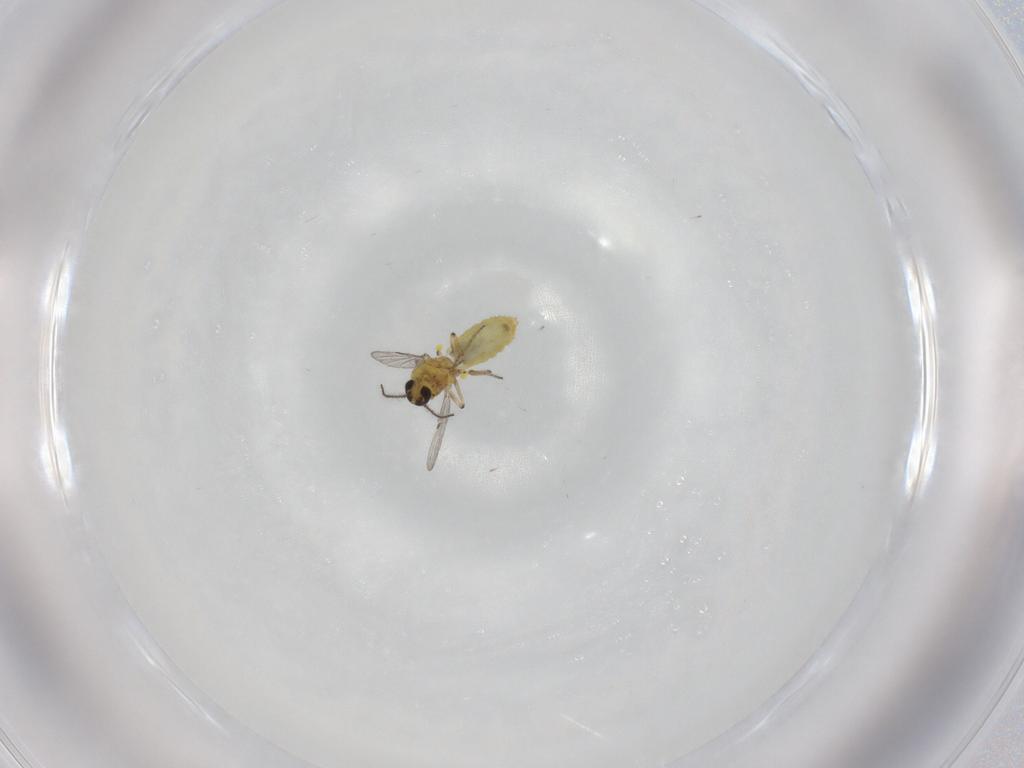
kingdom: Animalia
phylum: Arthropoda
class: Insecta
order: Diptera
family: Ceratopogonidae
